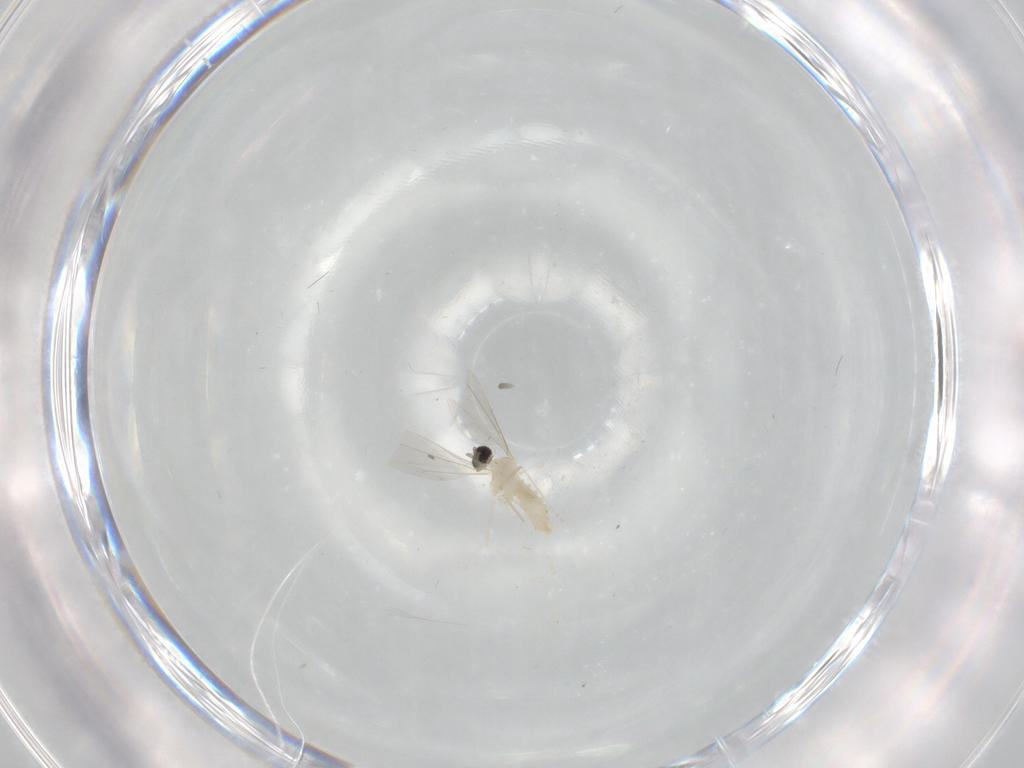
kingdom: Animalia
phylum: Arthropoda
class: Insecta
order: Diptera
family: Ceratopogonidae
